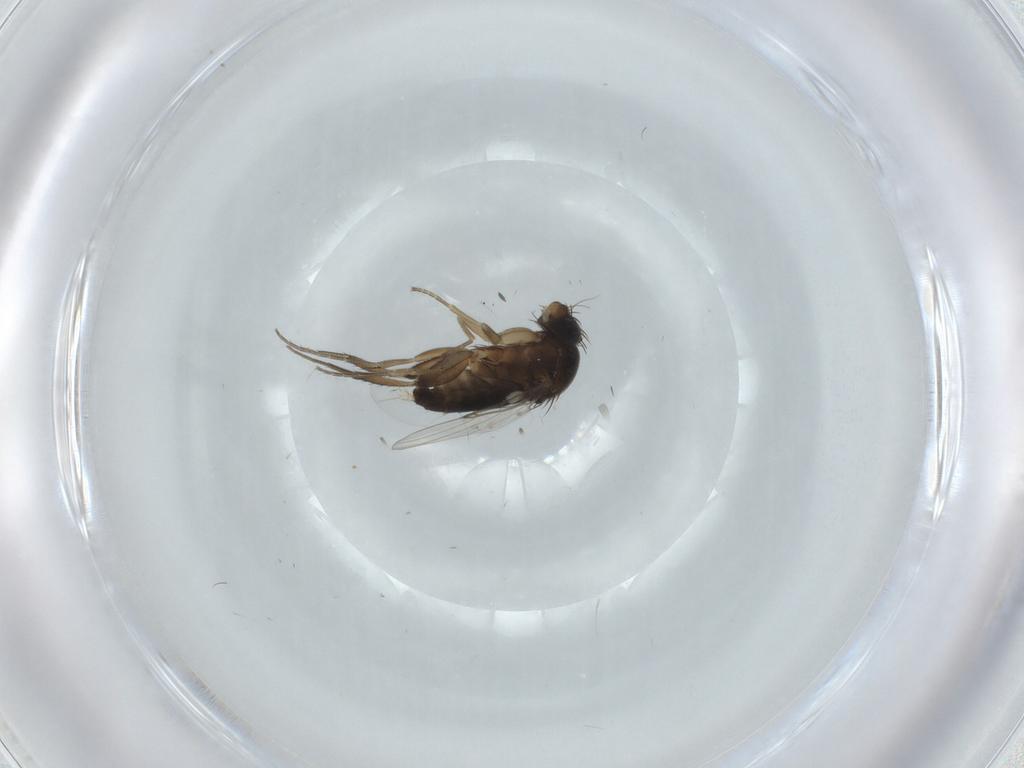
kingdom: Animalia
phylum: Arthropoda
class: Insecta
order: Diptera
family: Phoridae
